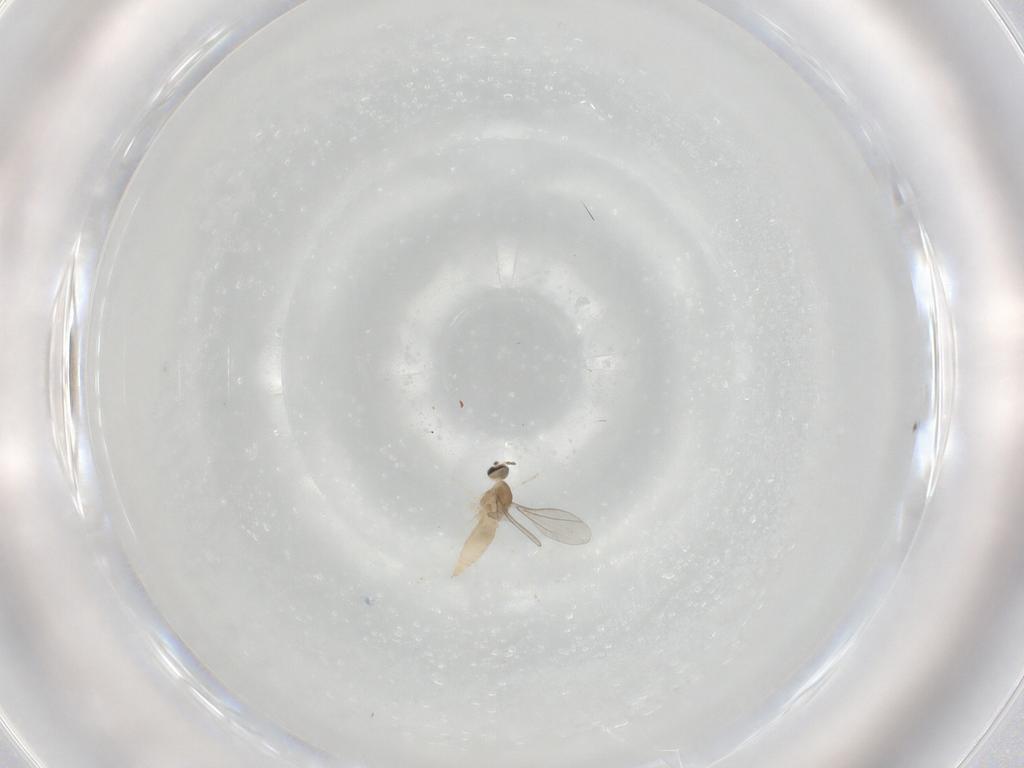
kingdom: Animalia
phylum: Arthropoda
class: Insecta
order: Diptera
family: Cecidomyiidae
